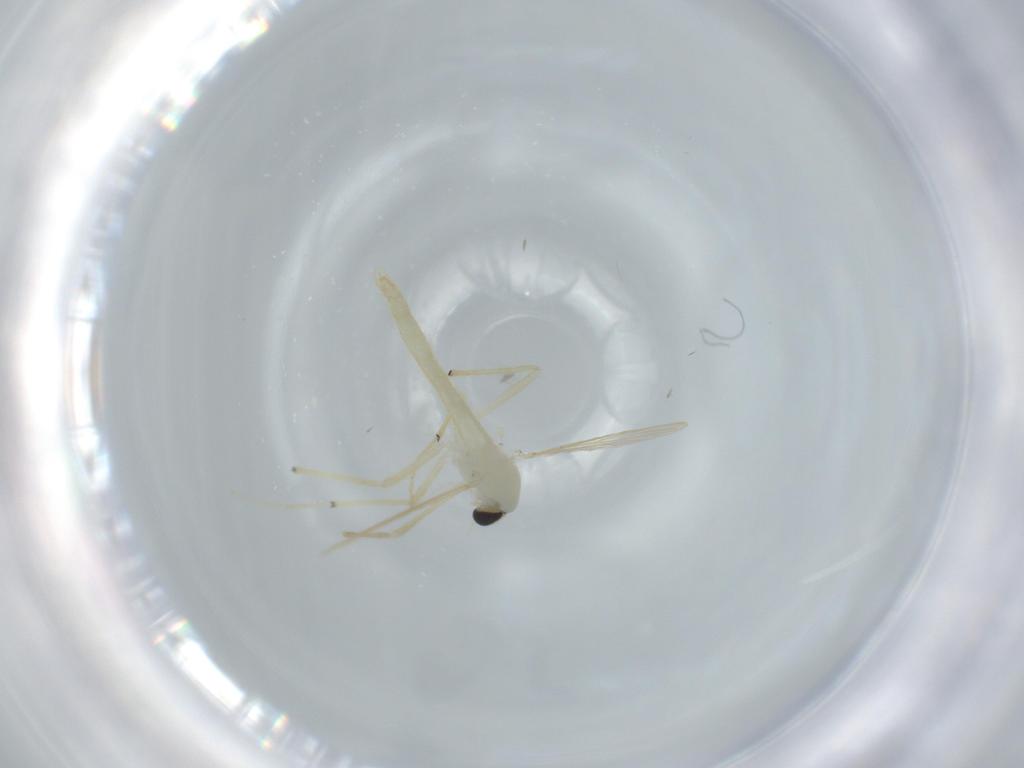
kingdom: Animalia
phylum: Arthropoda
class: Insecta
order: Diptera
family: Chironomidae
